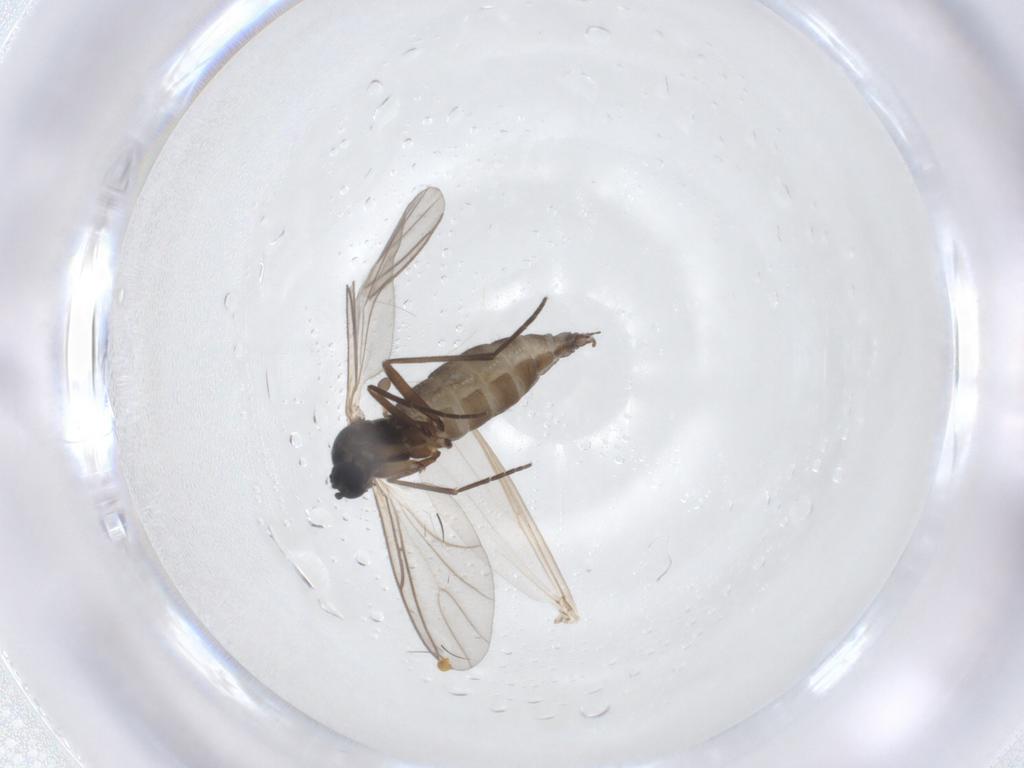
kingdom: Animalia
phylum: Arthropoda
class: Insecta
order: Diptera
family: Sciaridae
